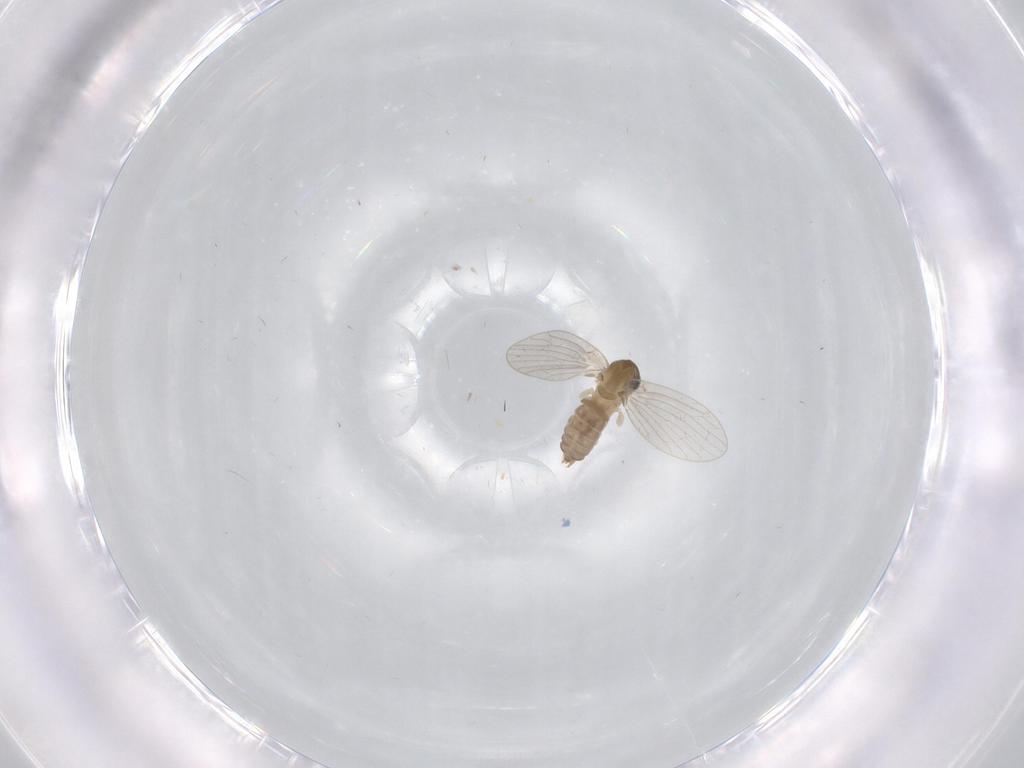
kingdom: Animalia
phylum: Arthropoda
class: Insecta
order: Diptera
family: Psychodidae
